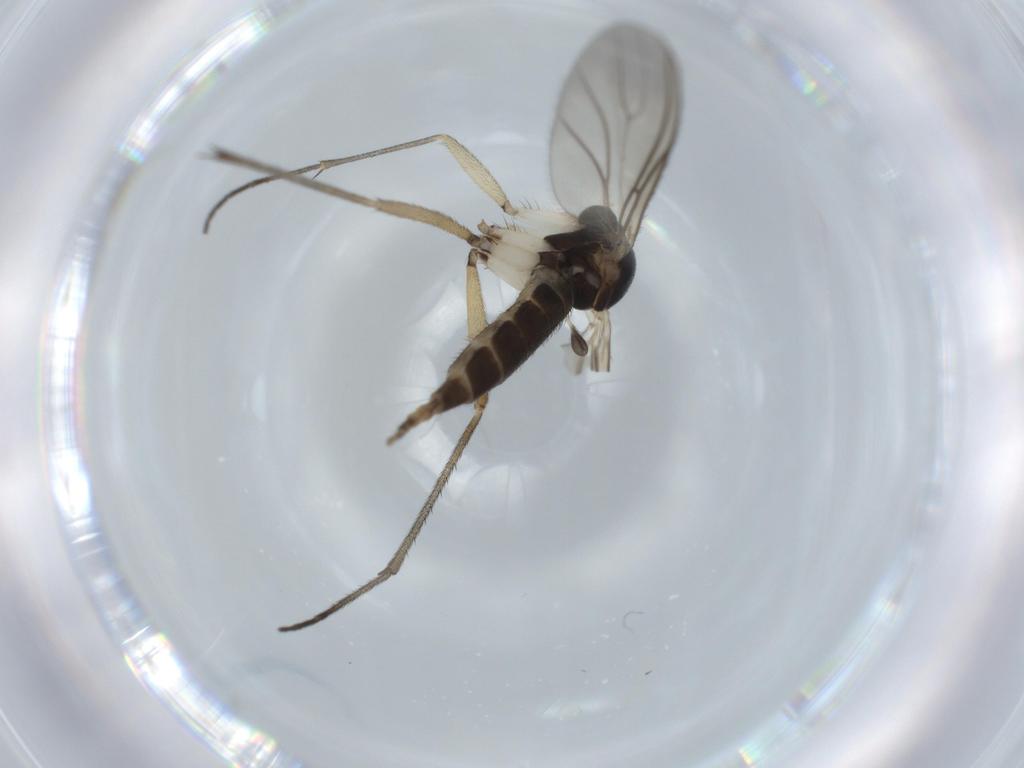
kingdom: Animalia
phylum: Arthropoda
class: Insecta
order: Diptera
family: Sciaridae
